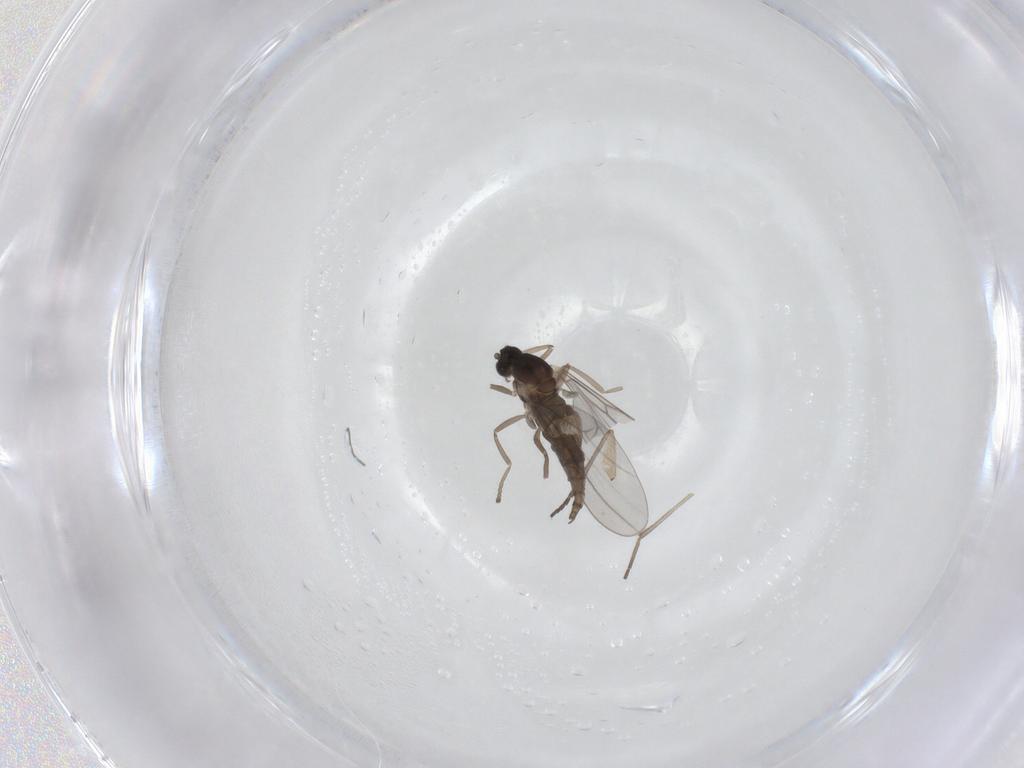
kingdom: Animalia
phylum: Arthropoda
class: Insecta
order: Diptera
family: Sciaridae
